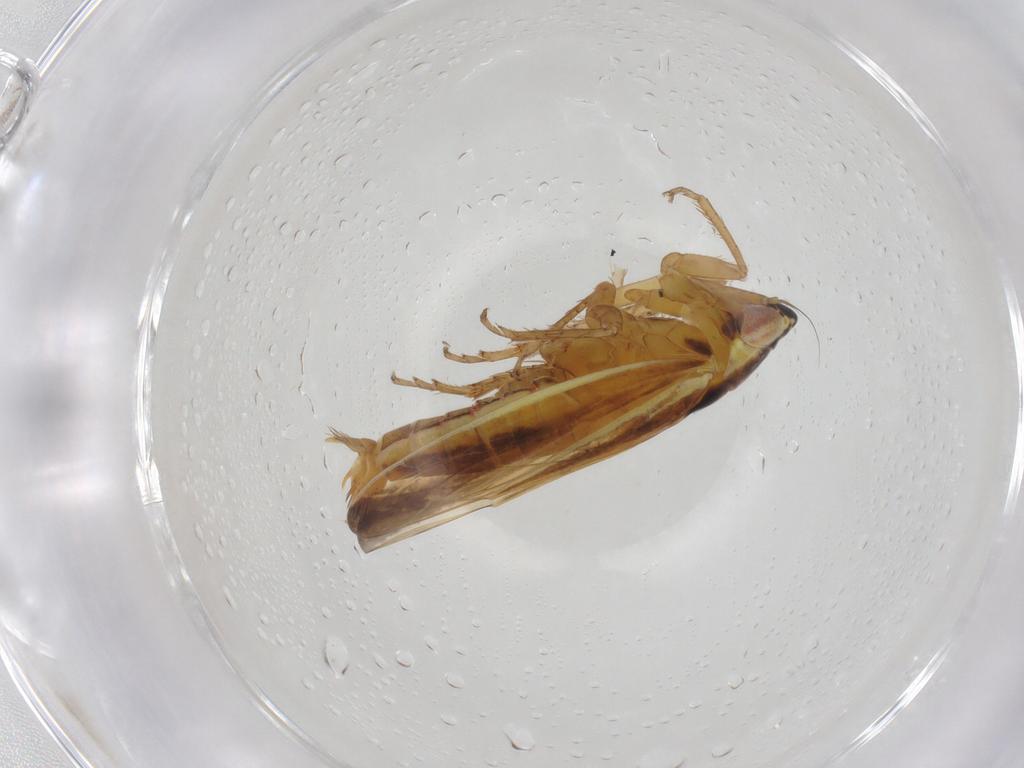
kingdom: Animalia
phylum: Arthropoda
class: Insecta
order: Hemiptera
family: Cicadellidae
